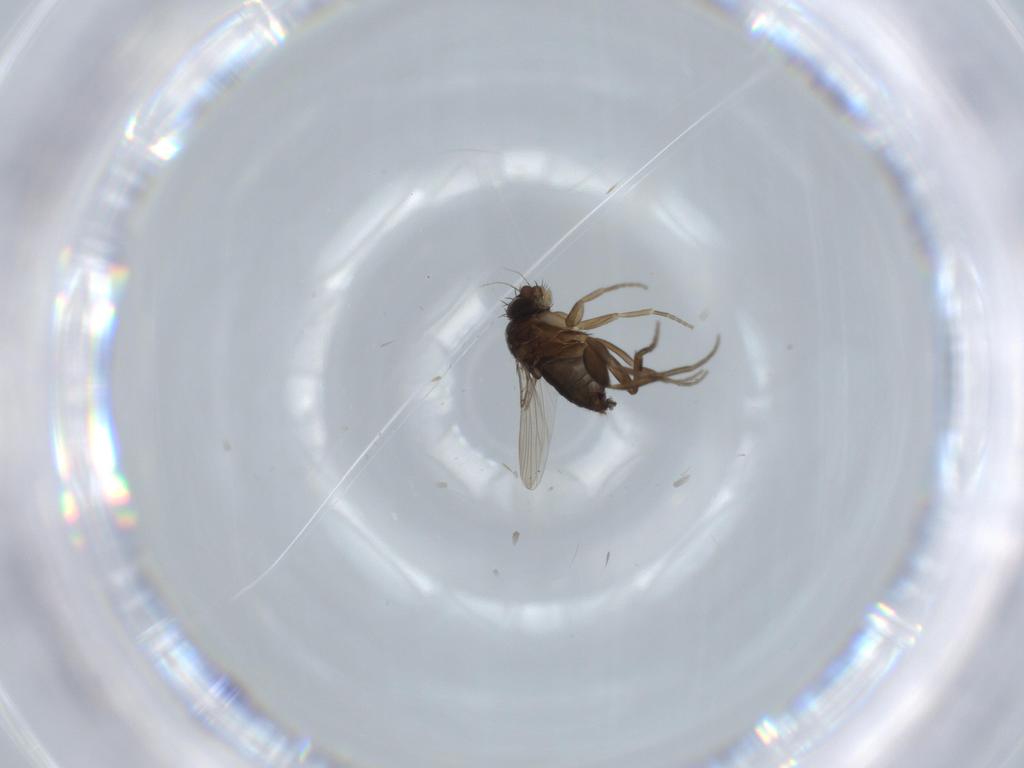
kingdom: Animalia
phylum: Arthropoda
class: Insecta
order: Diptera
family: Phoridae
